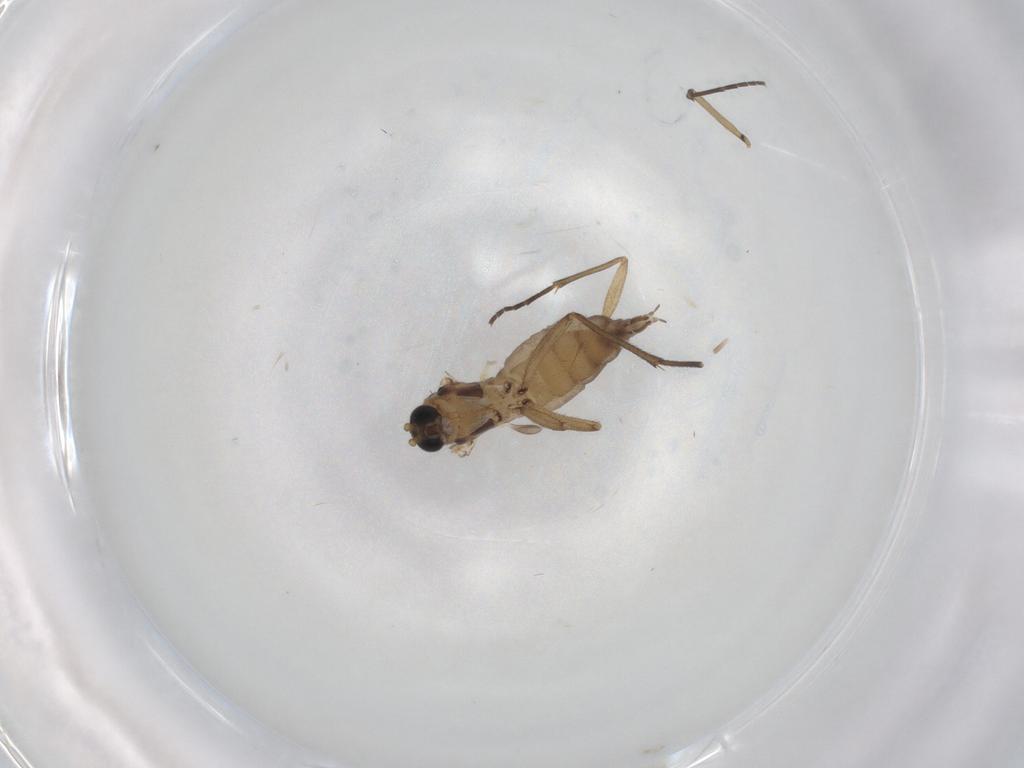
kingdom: Animalia
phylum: Arthropoda
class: Insecta
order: Diptera
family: Sciaridae
